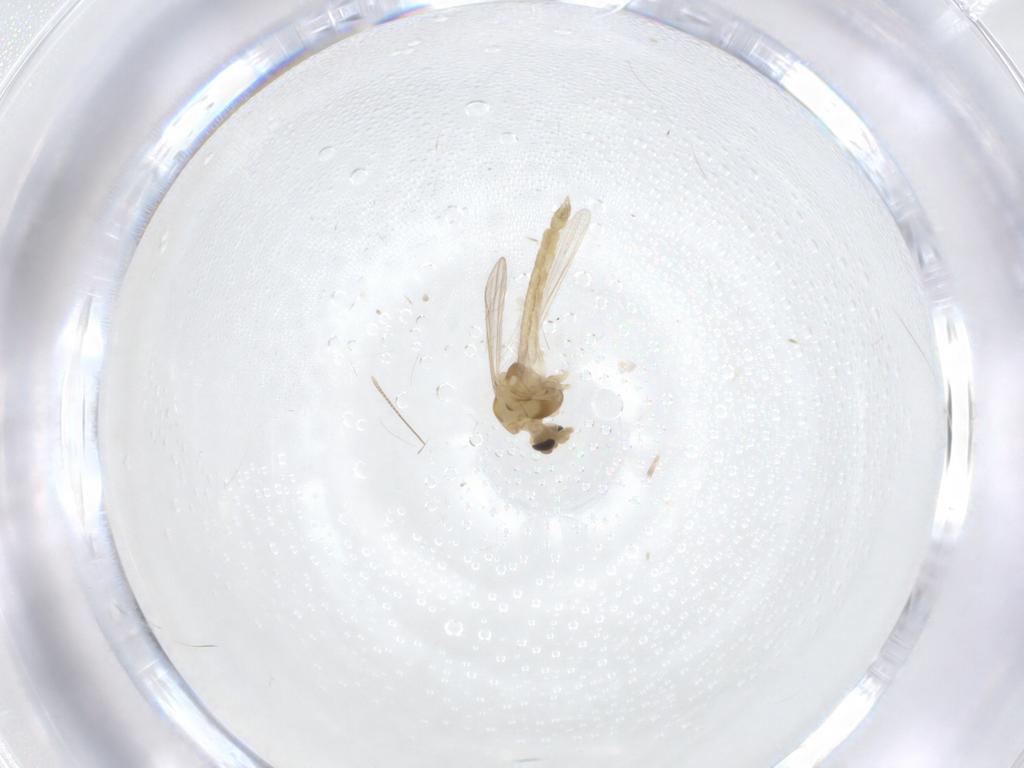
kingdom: Animalia
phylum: Arthropoda
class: Insecta
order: Diptera
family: Chironomidae
